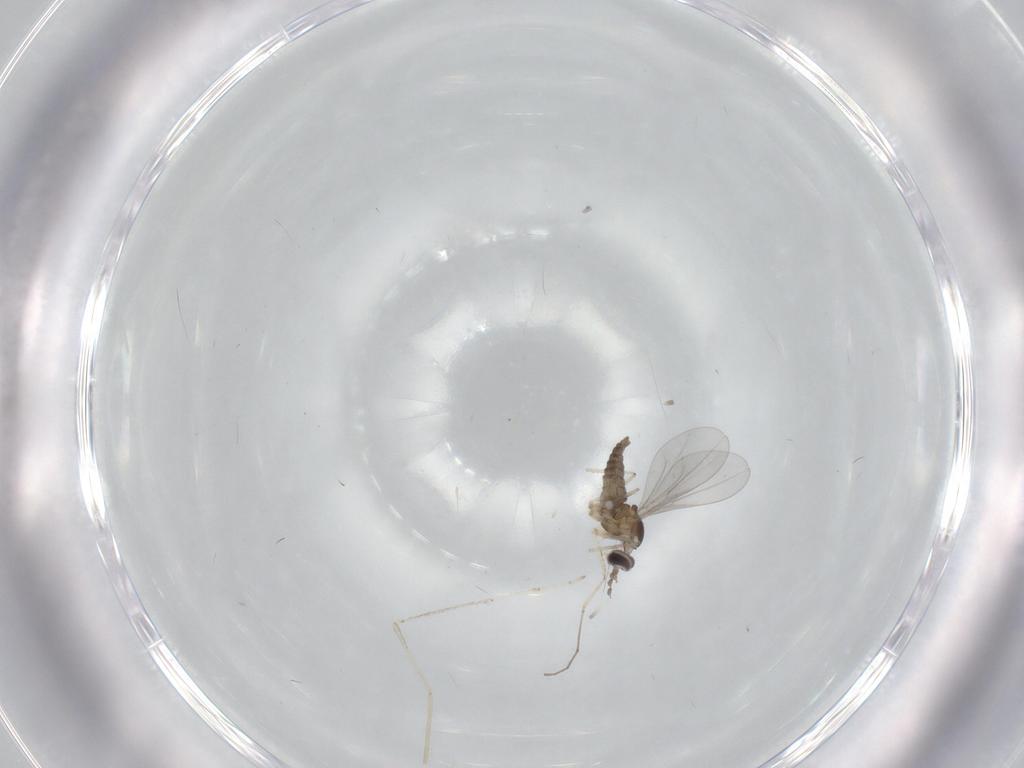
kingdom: Animalia
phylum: Arthropoda
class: Insecta
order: Diptera
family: Cecidomyiidae
